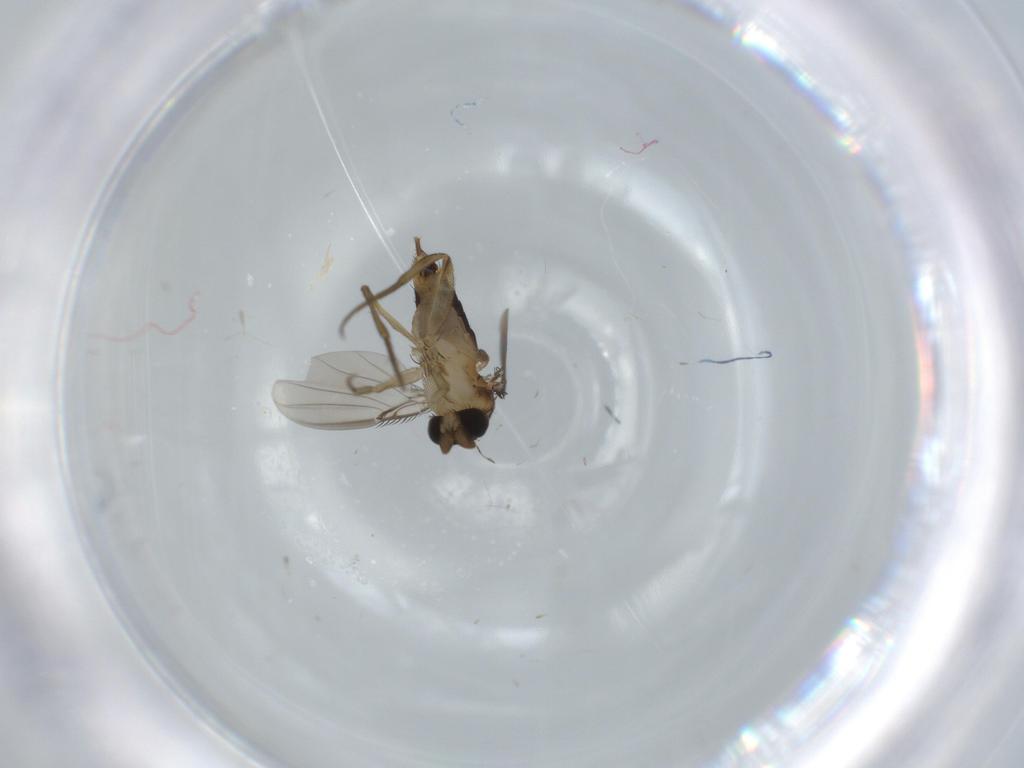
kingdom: Animalia
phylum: Arthropoda
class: Insecta
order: Diptera
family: Phoridae
